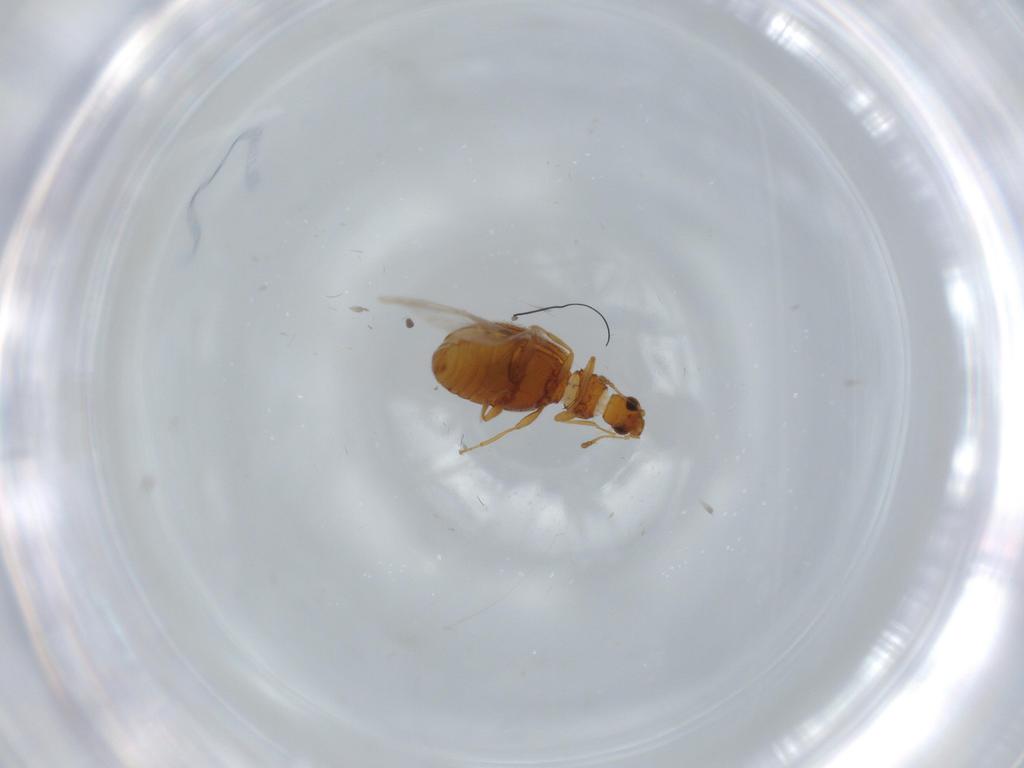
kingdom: Animalia
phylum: Arthropoda
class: Insecta
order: Coleoptera
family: Latridiidae
